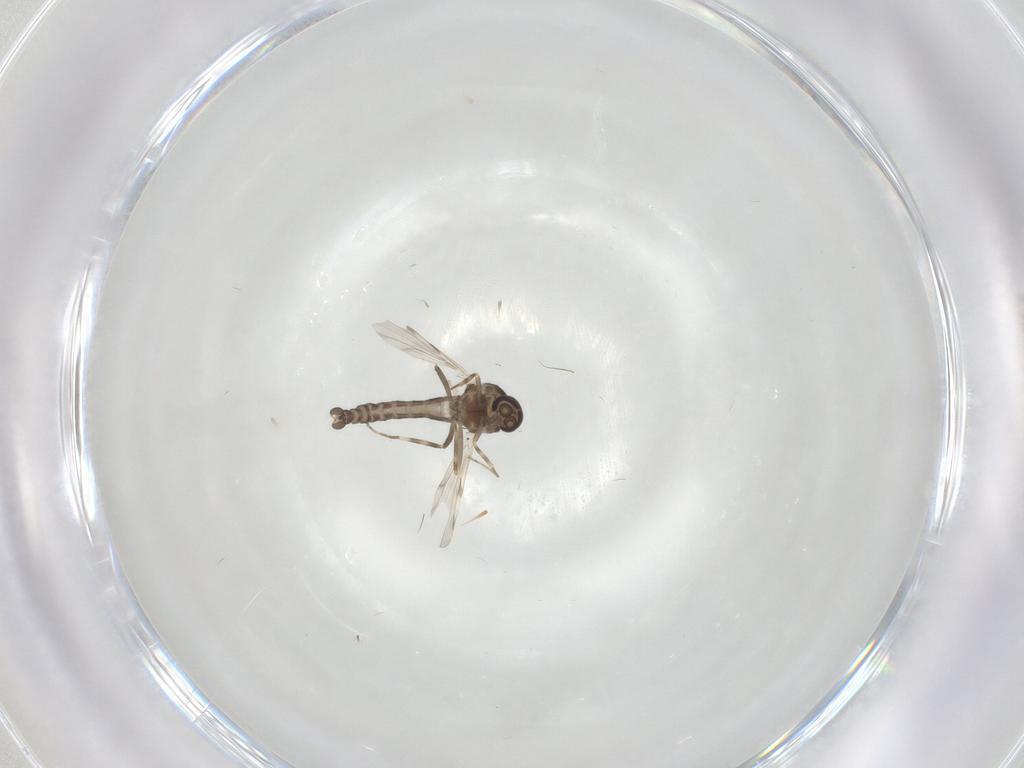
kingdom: Animalia
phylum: Arthropoda
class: Insecta
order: Diptera
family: Ceratopogonidae
